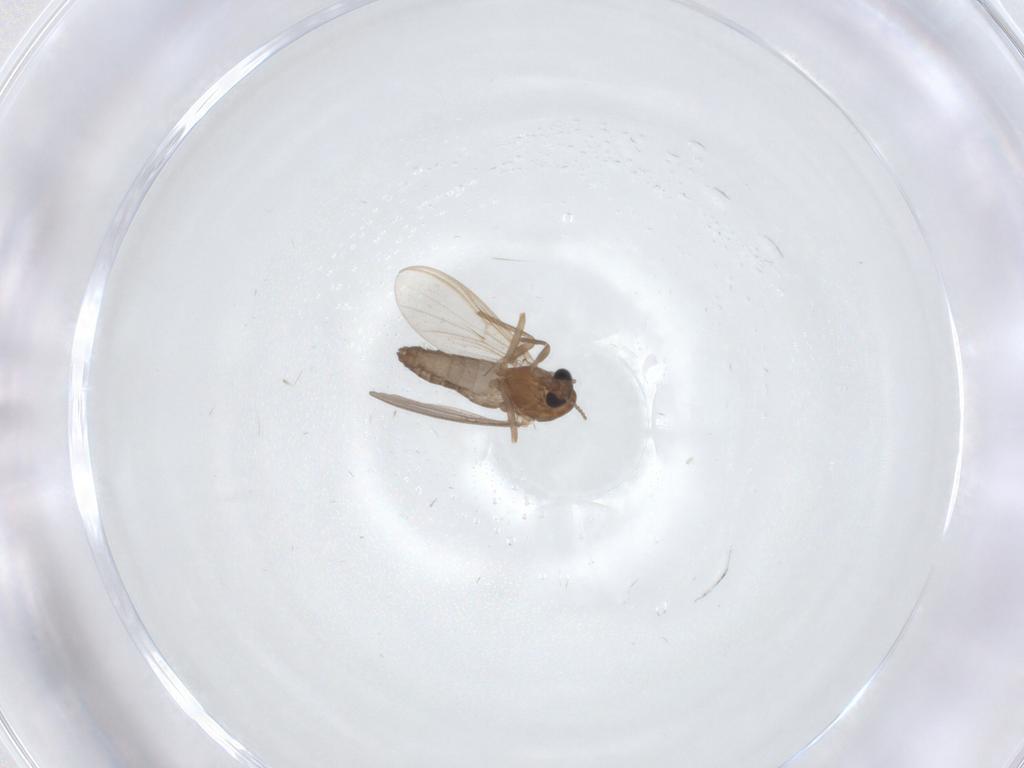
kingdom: Animalia
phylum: Arthropoda
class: Insecta
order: Diptera
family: Chironomidae
